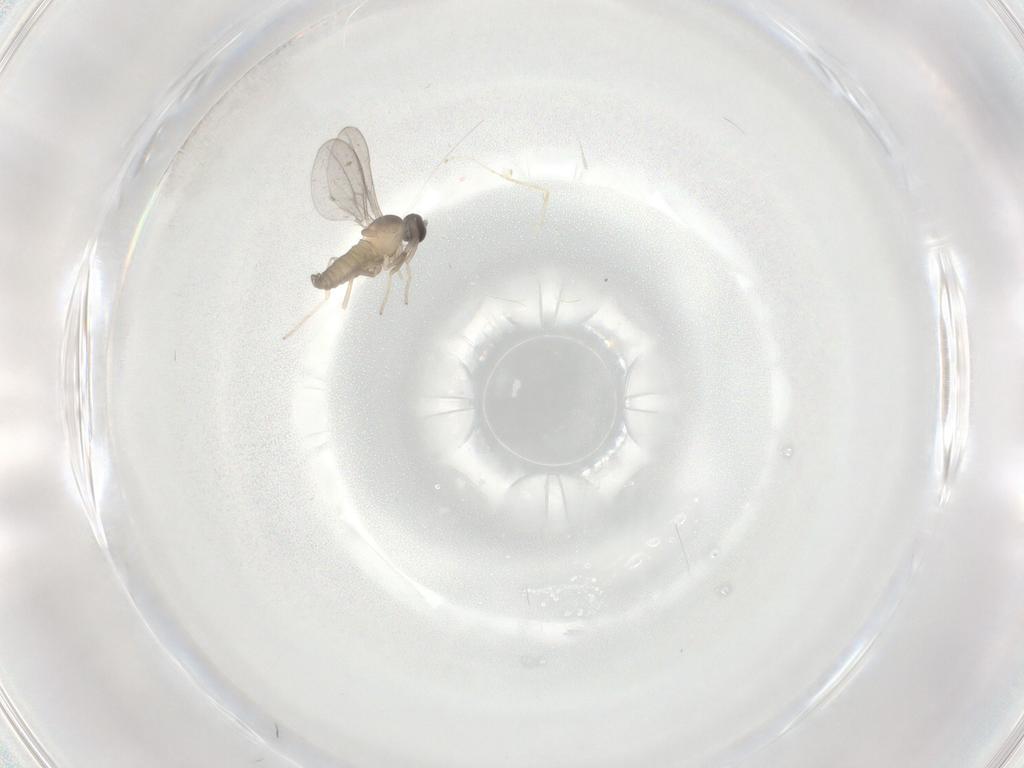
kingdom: Animalia
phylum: Arthropoda
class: Insecta
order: Diptera
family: Cecidomyiidae
